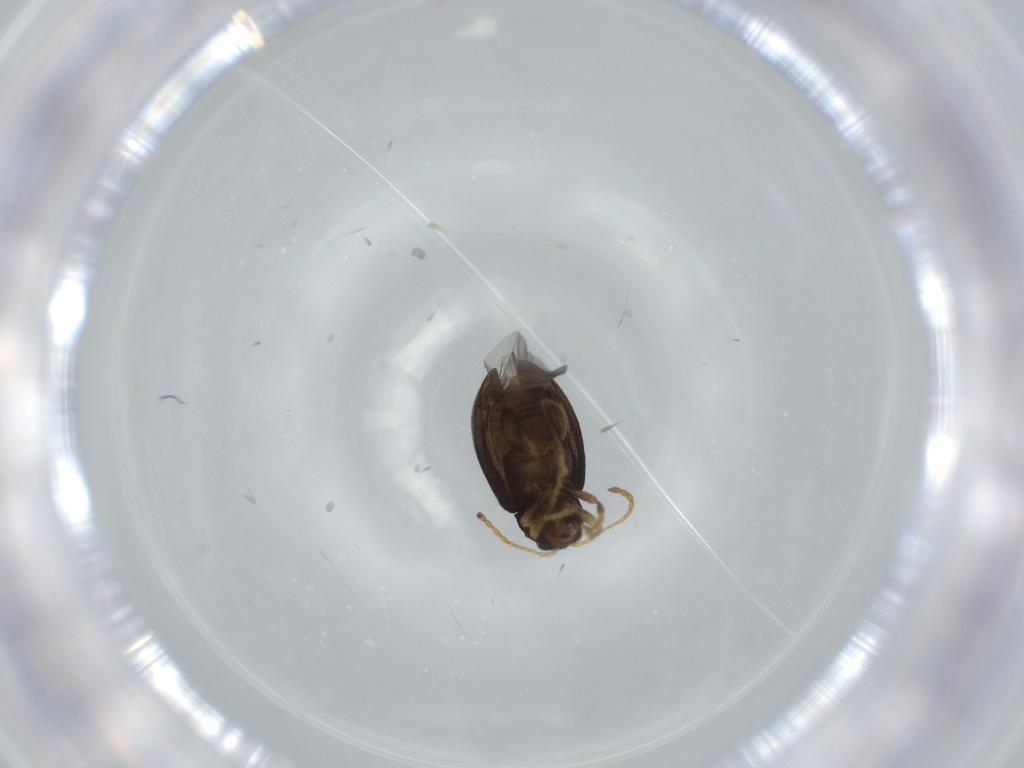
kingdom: Animalia
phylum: Arthropoda
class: Insecta
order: Coleoptera
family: Chrysomelidae
